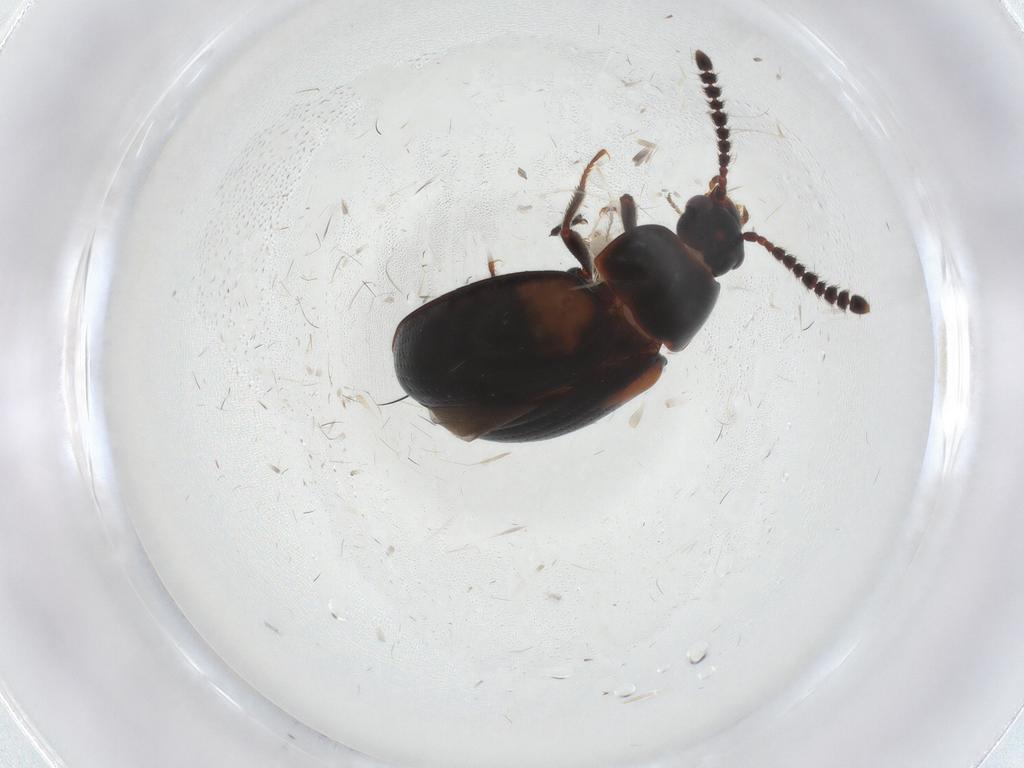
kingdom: Animalia
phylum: Arthropoda
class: Insecta
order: Coleoptera
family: Leiodidae
